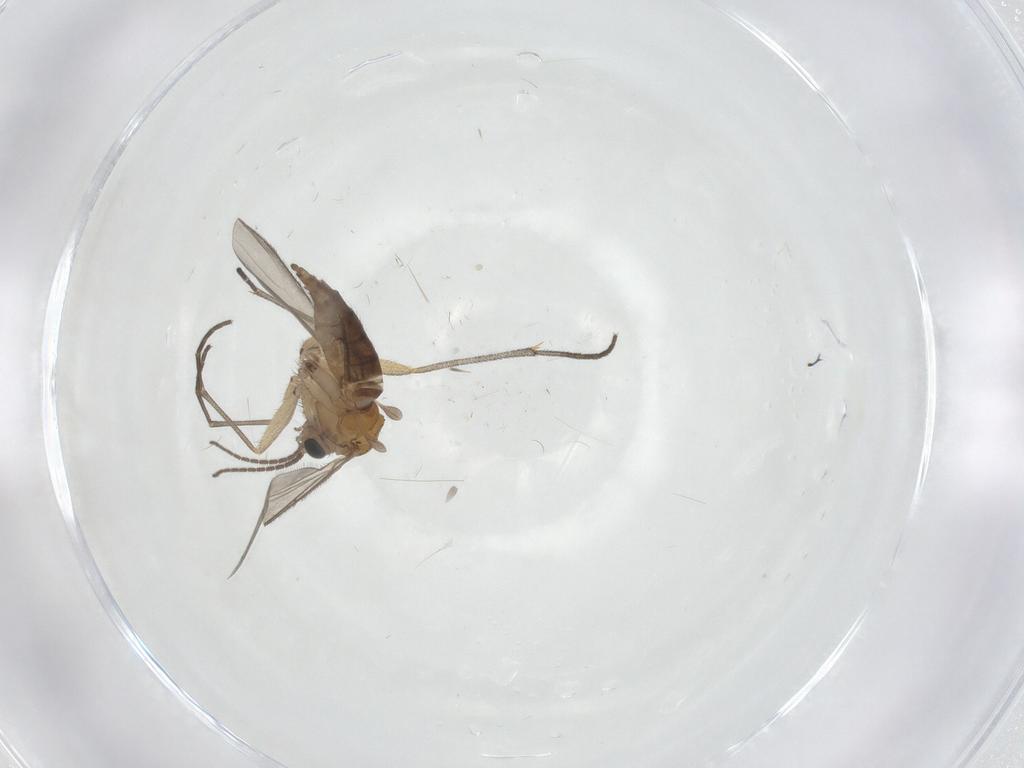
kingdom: Animalia
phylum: Arthropoda
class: Insecta
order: Diptera
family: Sciaridae
